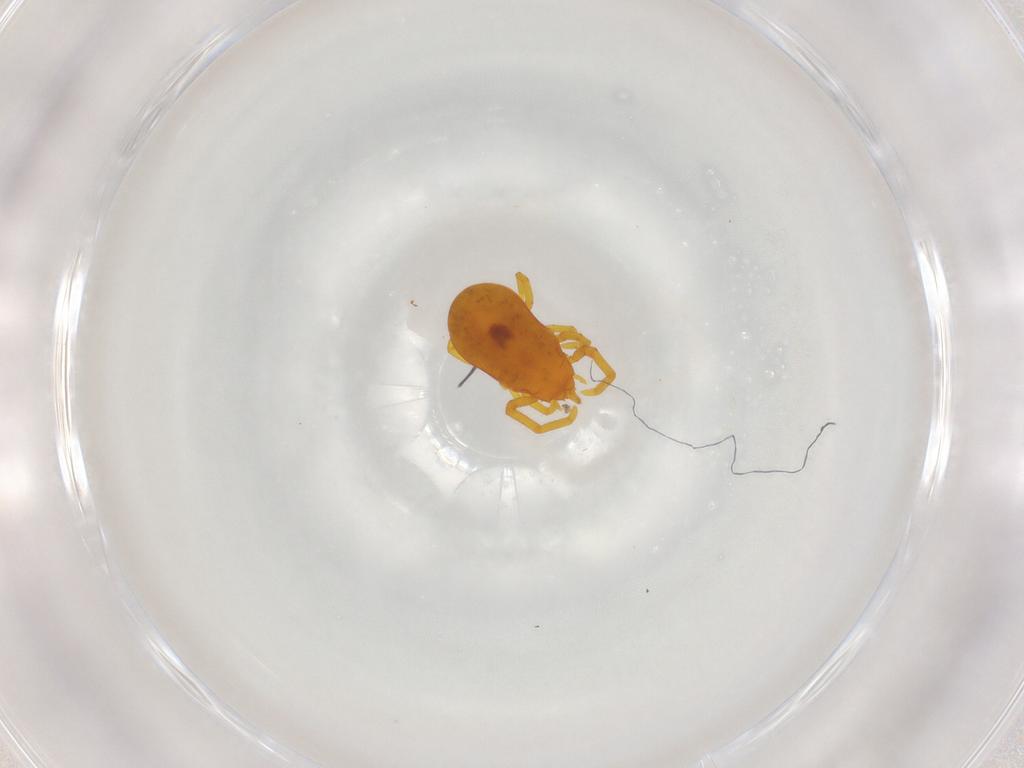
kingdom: Animalia
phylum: Arthropoda
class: Arachnida
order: Trombidiformes
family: Labidostommidae
